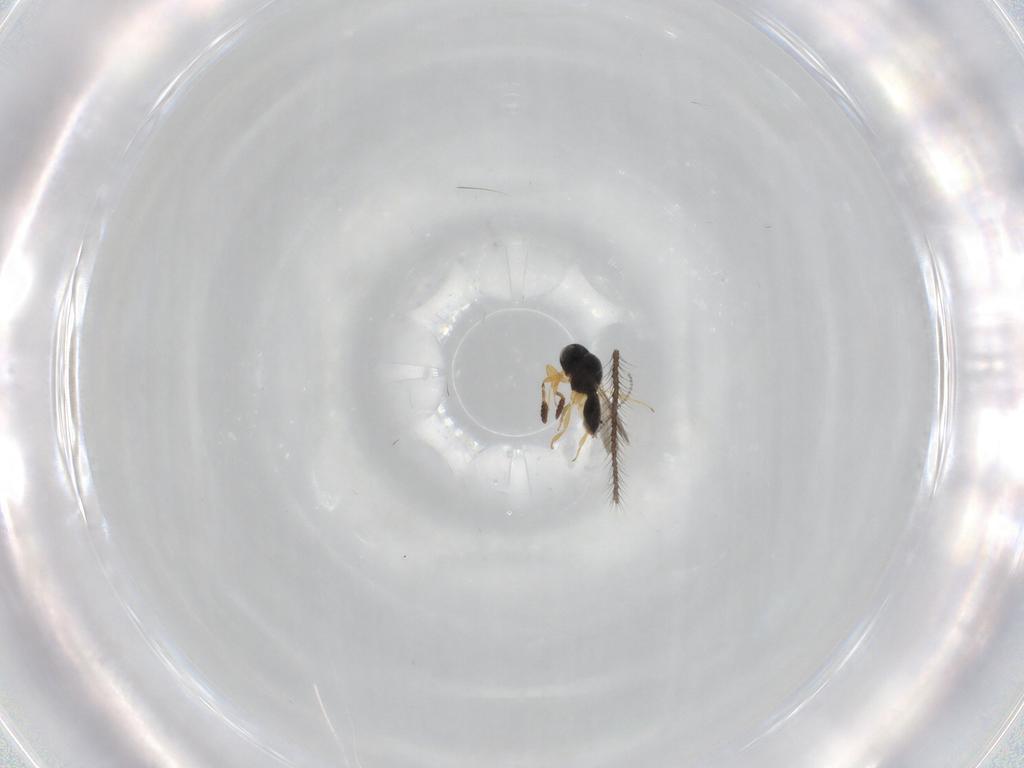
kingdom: Animalia
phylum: Arthropoda
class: Insecta
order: Hymenoptera
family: Scelionidae
